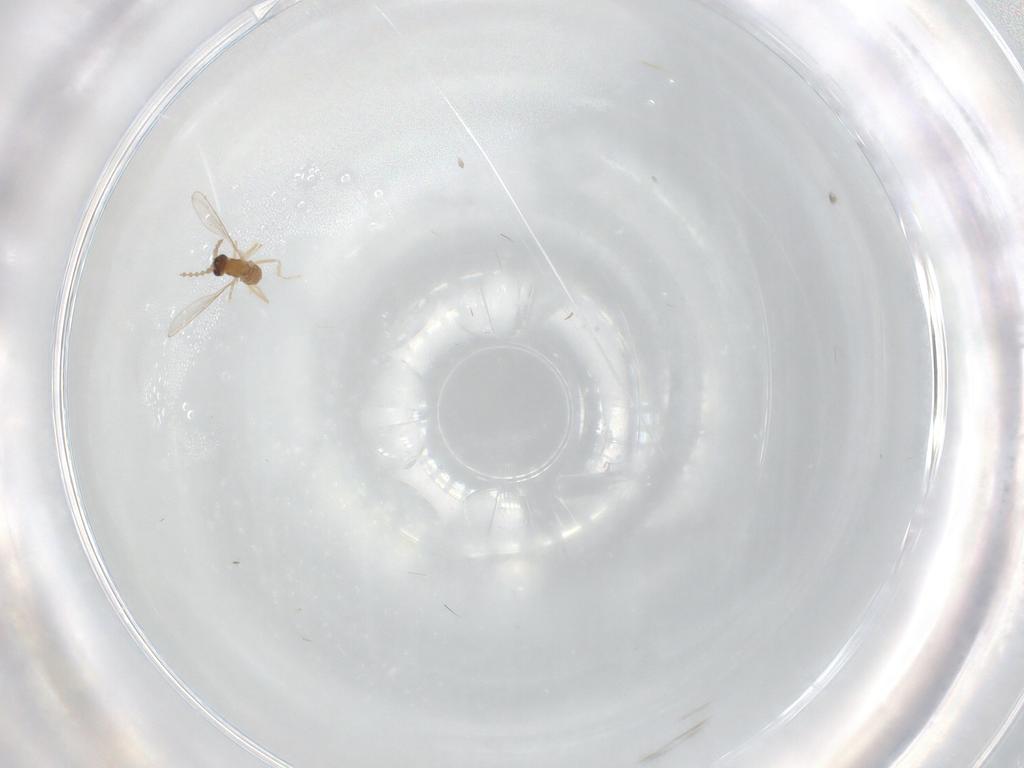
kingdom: Animalia
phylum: Arthropoda
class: Insecta
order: Diptera
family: Cecidomyiidae
